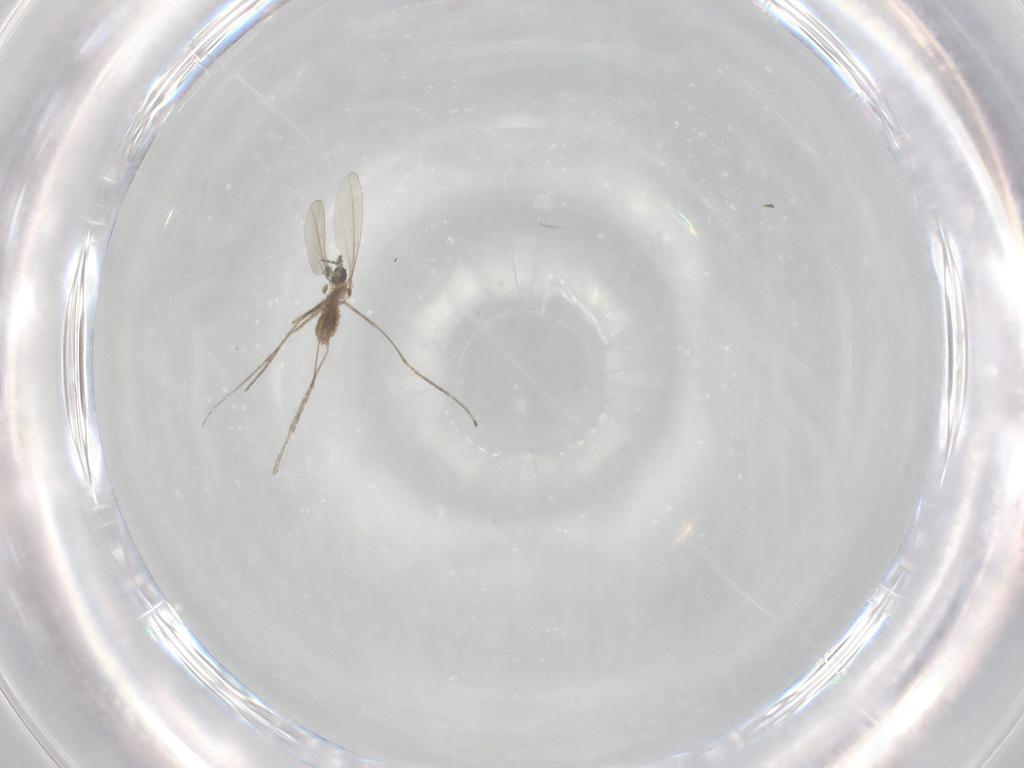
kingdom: Animalia
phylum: Arthropoda
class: Insecta
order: Diptera
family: Cecidomyiidae
